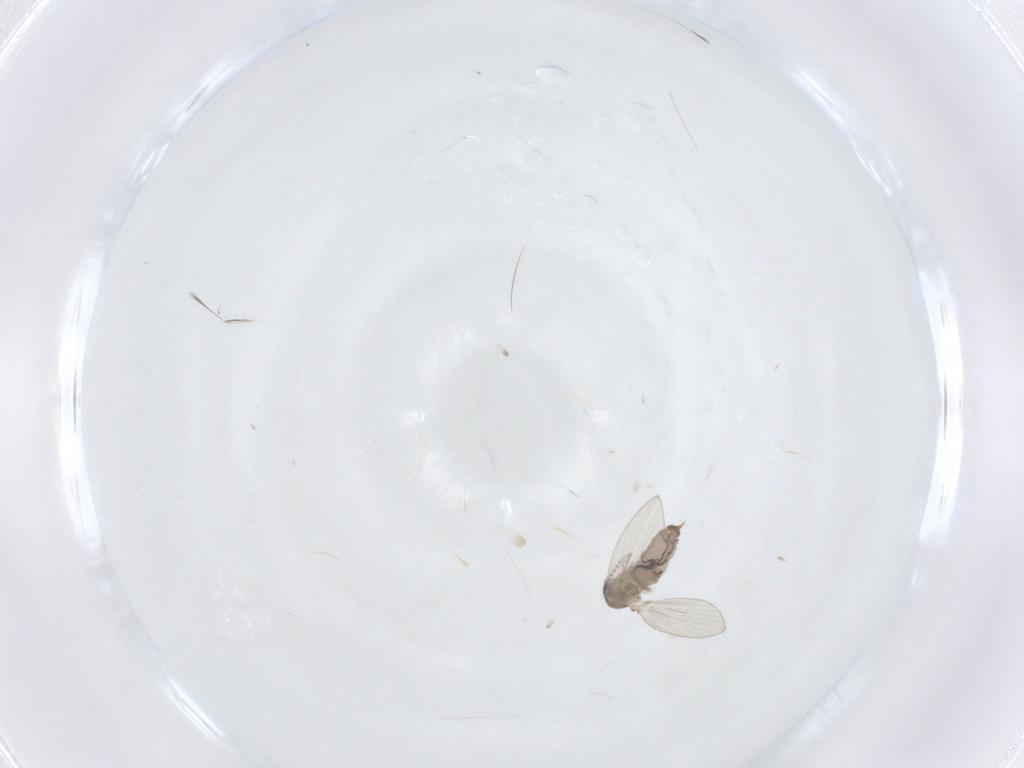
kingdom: Animalia
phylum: Arthropoda
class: Insecta
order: Diptera
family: Psychodidae
